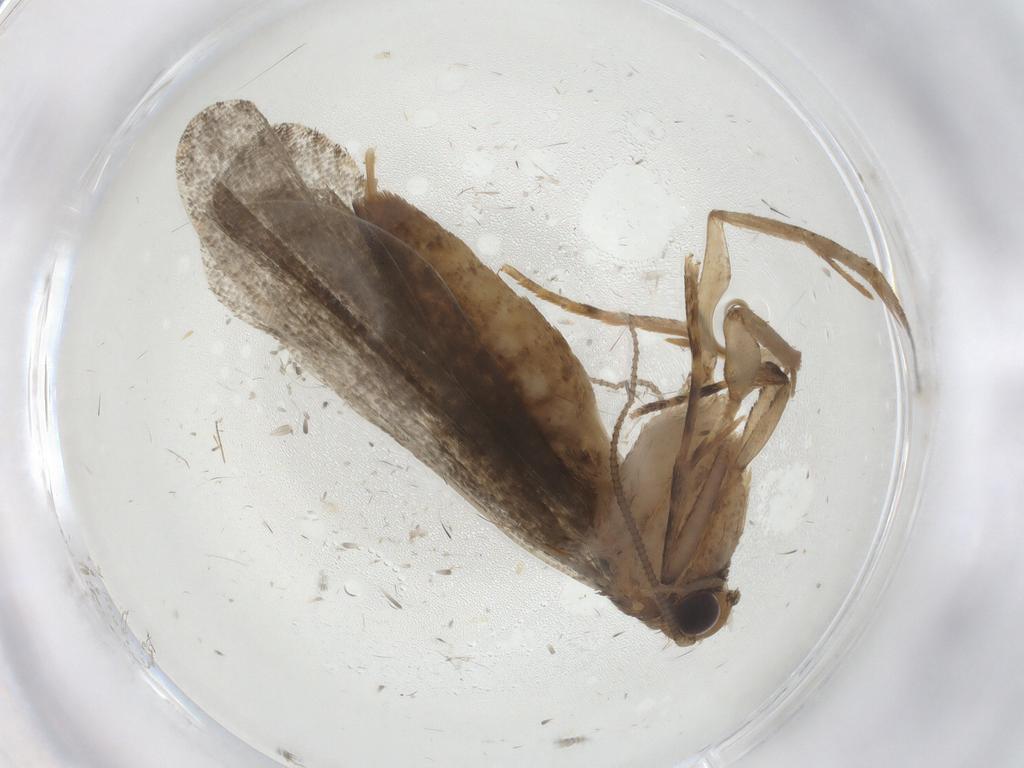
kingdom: Animalia
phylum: Arthropoda
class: Insecta
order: Lepidoptera
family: Tineidae
